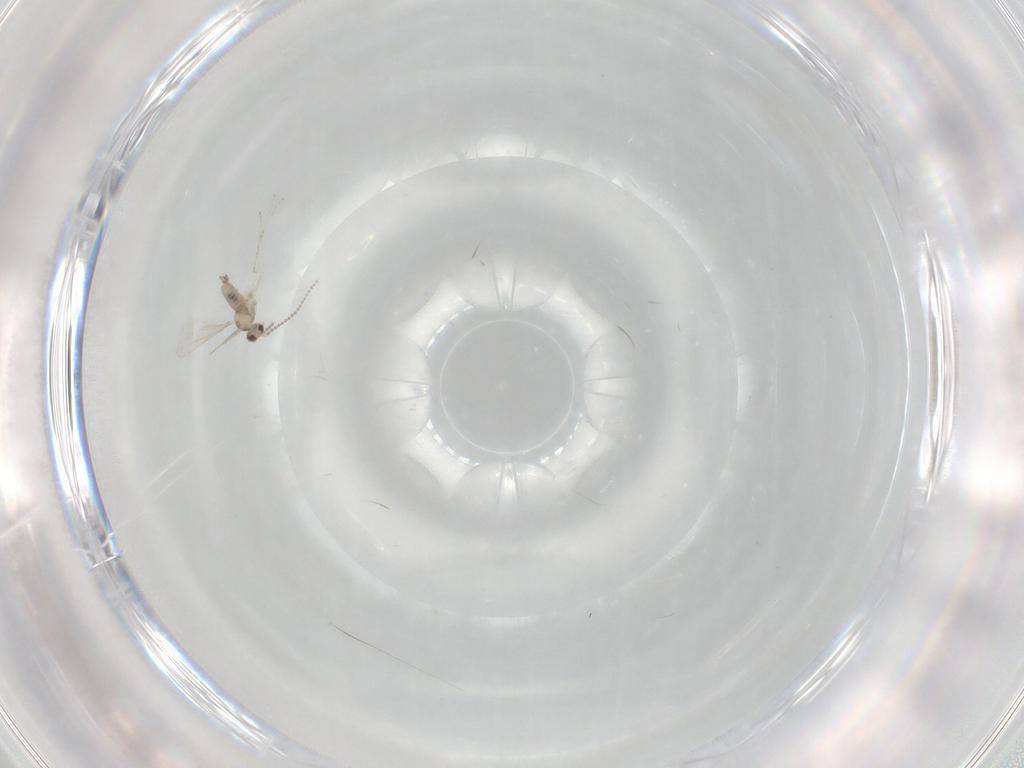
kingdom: Animalia
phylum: Arthropoda
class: Insecta
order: Diptera
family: Cecidomyiidae
